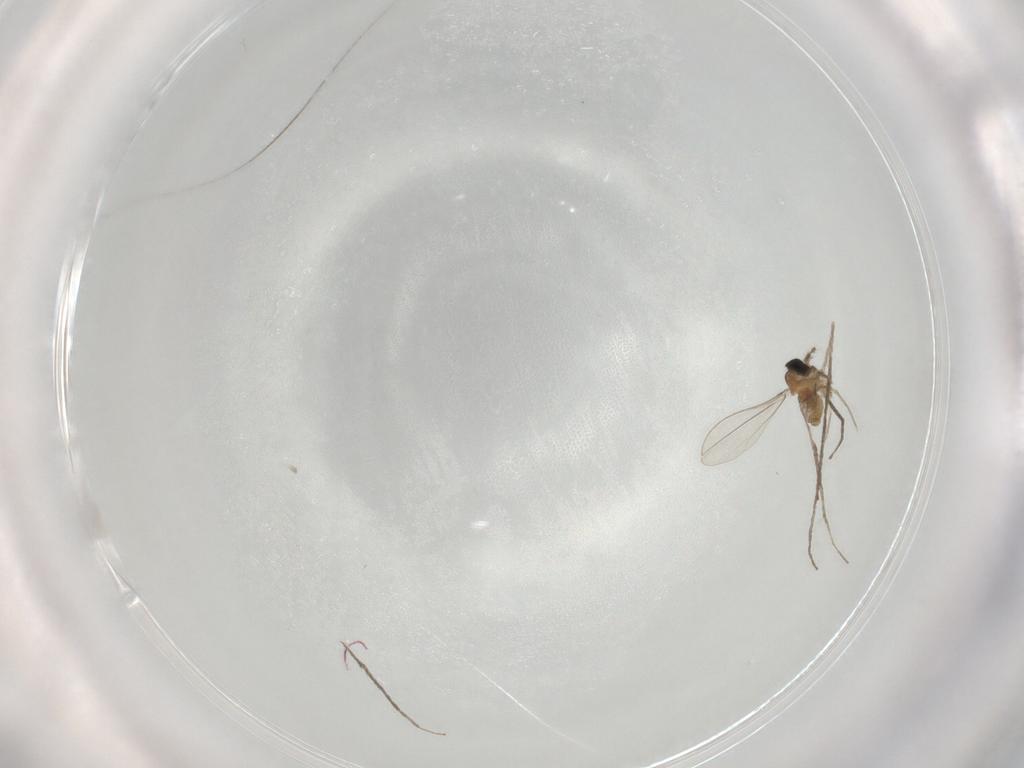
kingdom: Animalia
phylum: Arthropoda
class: Insecta
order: Diptera
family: Cecidomyiidae
